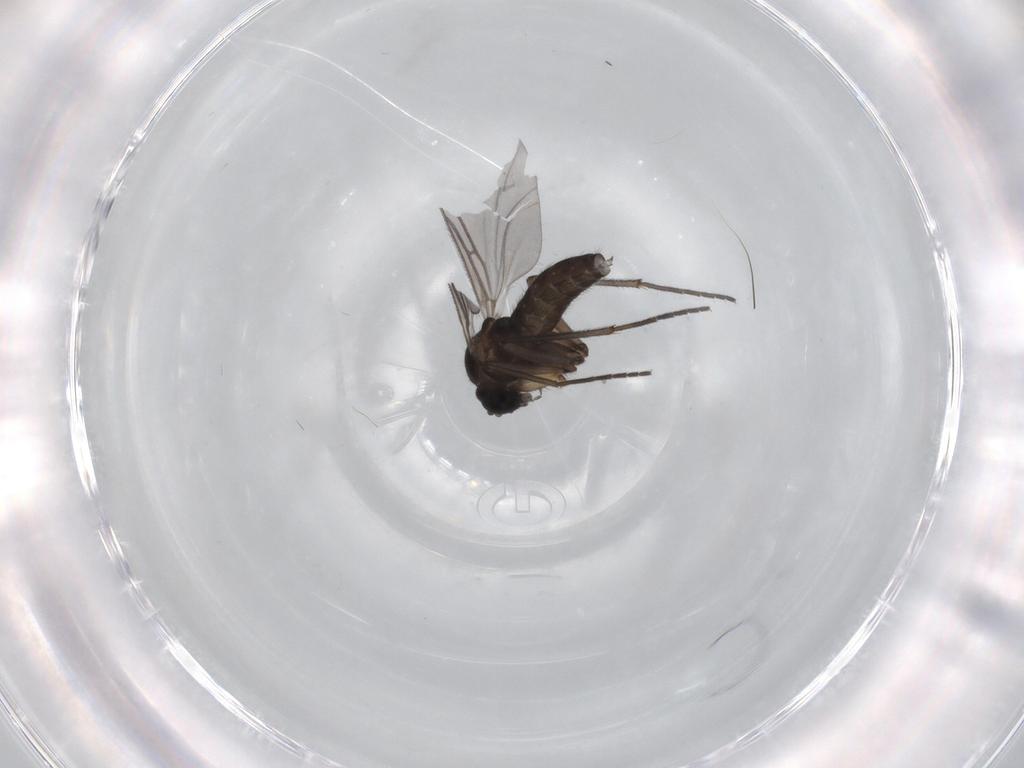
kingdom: Animalia
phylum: Arthropoda
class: Insecta
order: Diptera
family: Sciaridae
